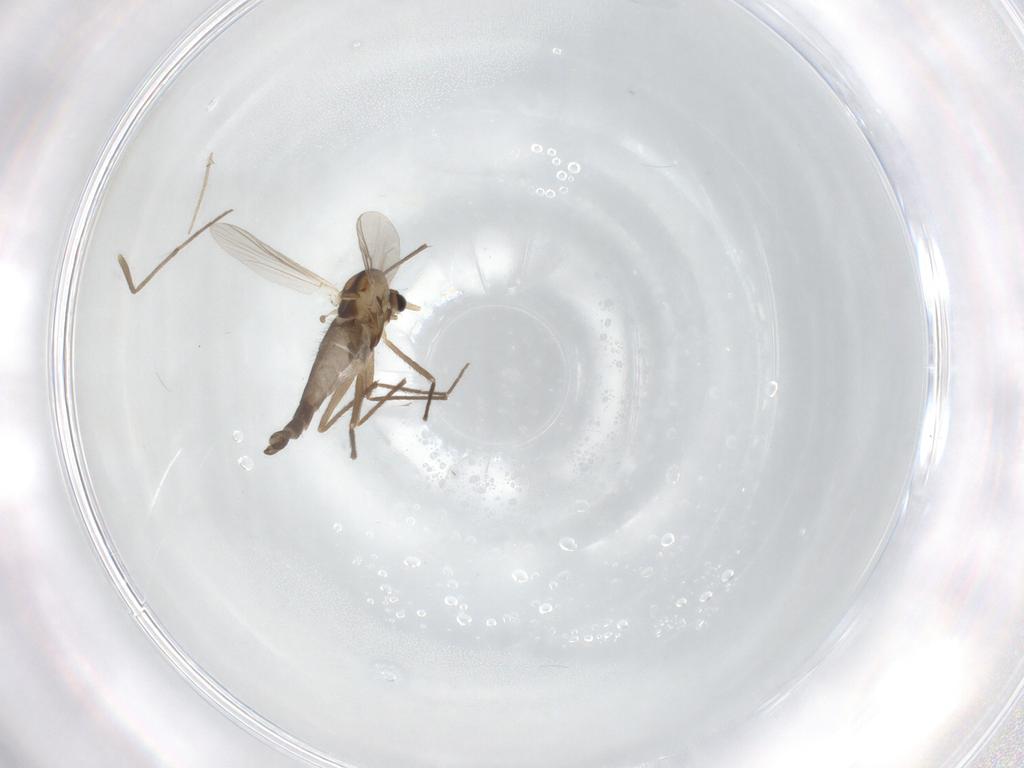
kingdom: Animalia
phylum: Arthropoda
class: Insecta
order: Diptera
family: Chironomidae
